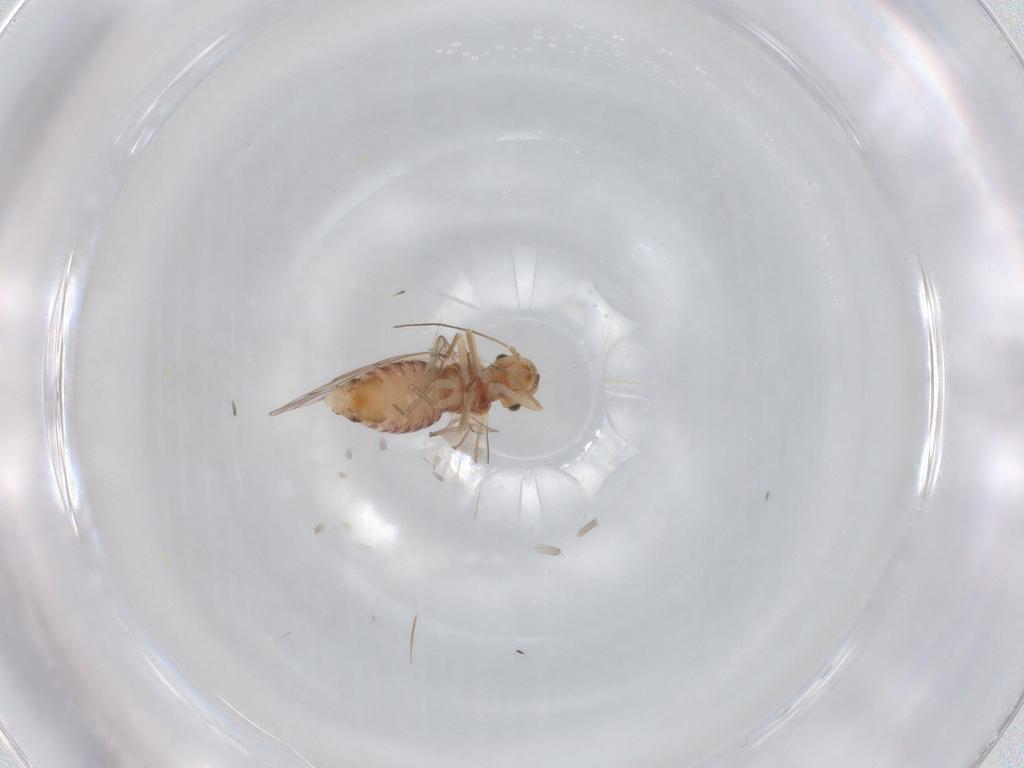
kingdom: Animalia
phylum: Arthropoda
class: Insecta
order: Psocodea
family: Lachesillidae
